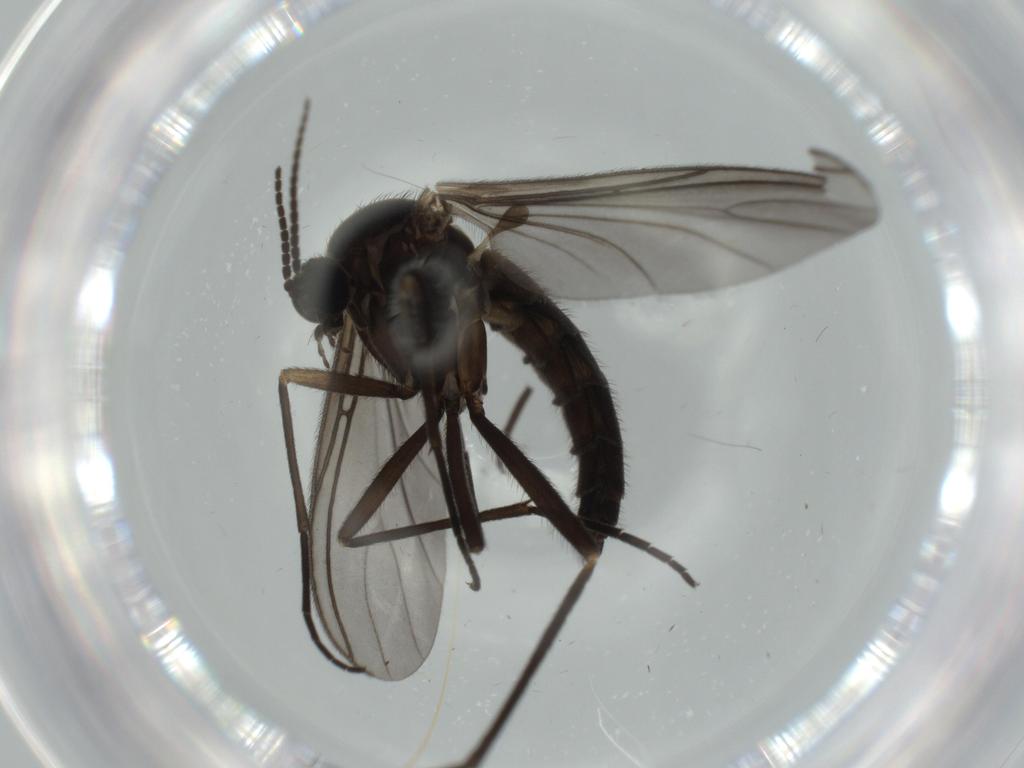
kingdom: Animalia
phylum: Arthropoda
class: Insecta
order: Diptera
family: Sciaridae
